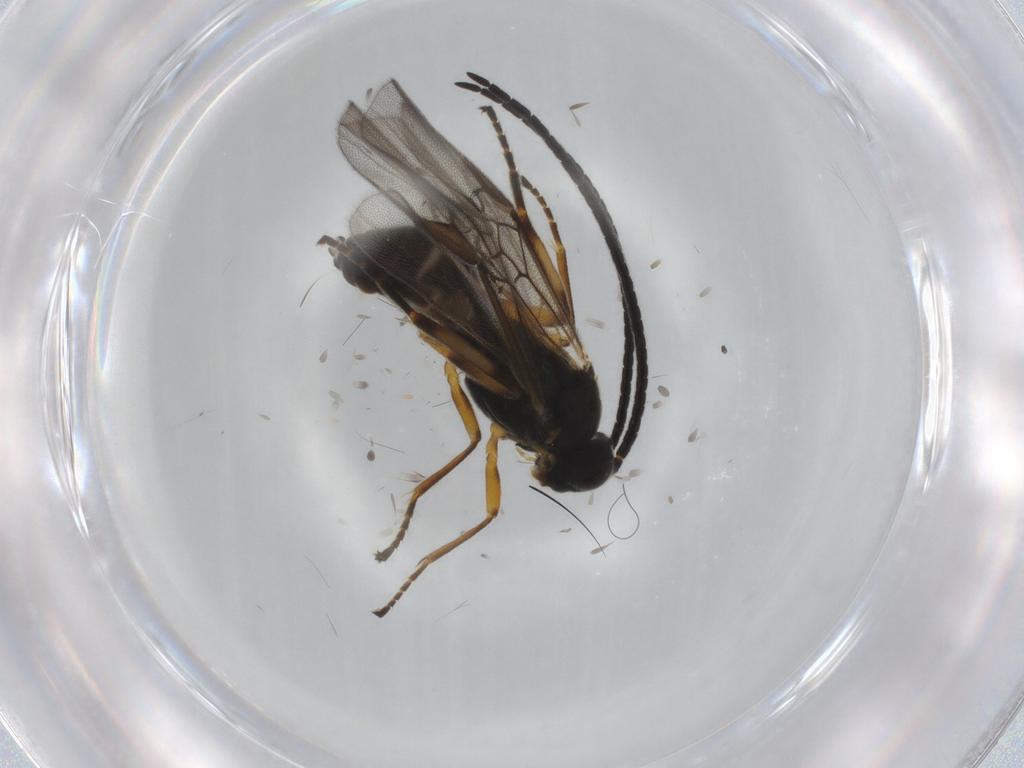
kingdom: Animalia
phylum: Arthropoda
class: Insecta
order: Hymenoptera
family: Braconidae
